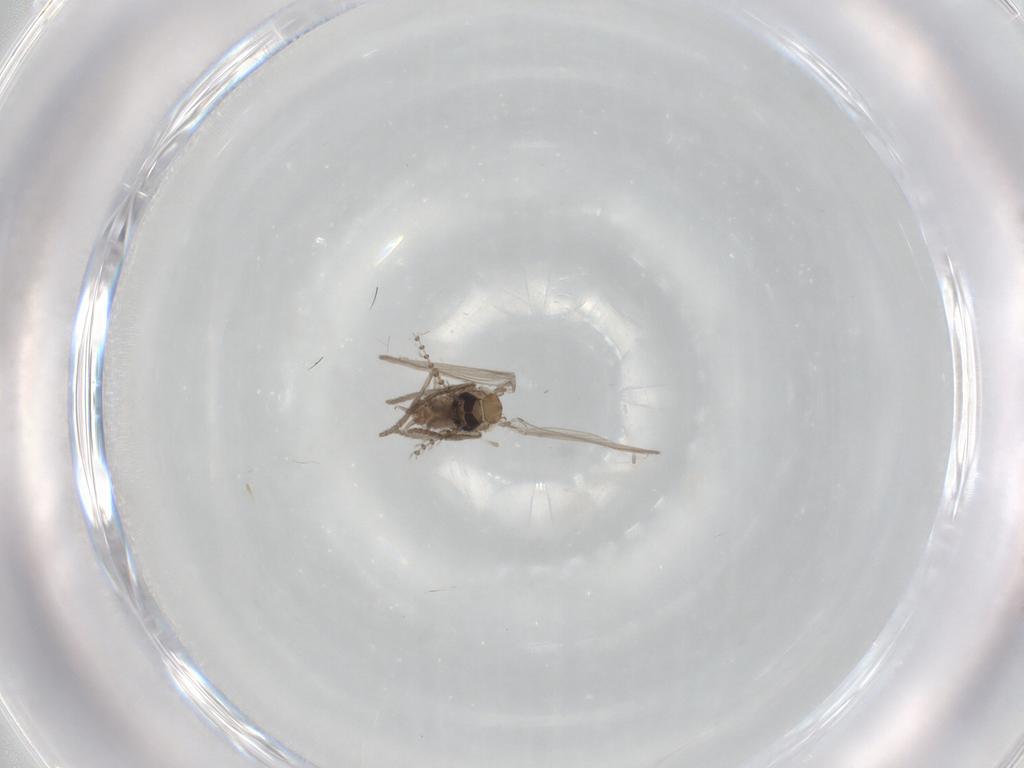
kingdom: Animalia
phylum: Arthropoda
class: Insecta
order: Diptera
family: Psychodidae
